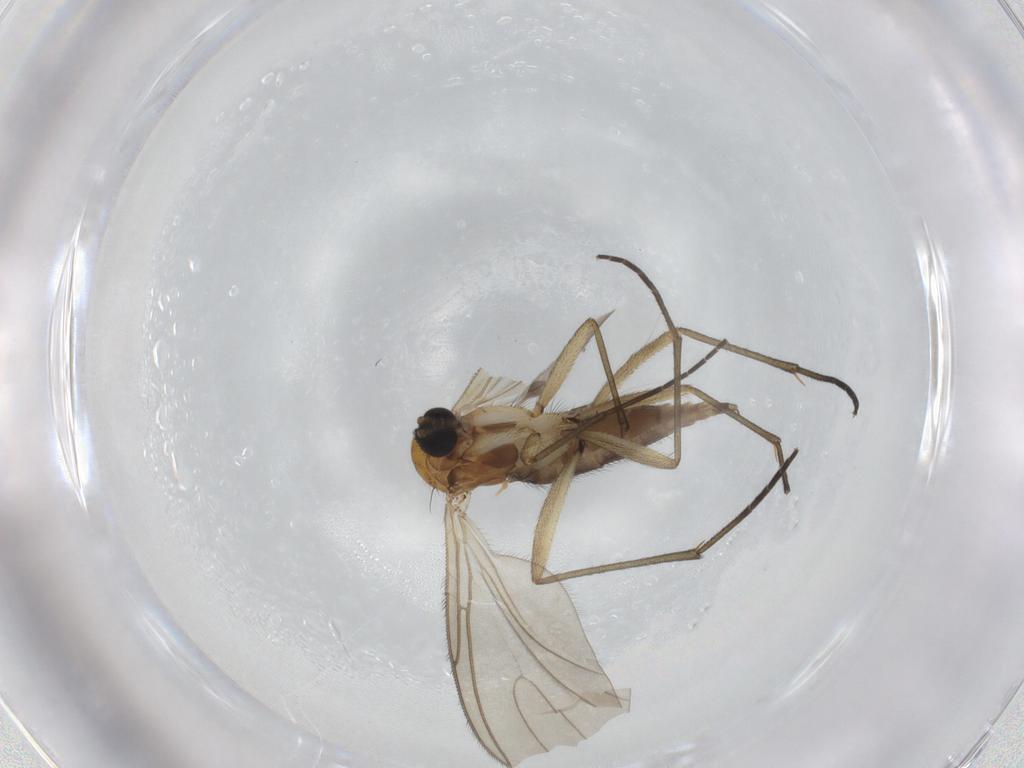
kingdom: Animalia
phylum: Arthropoda
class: Insecta
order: Diptera
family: Sciaridae
